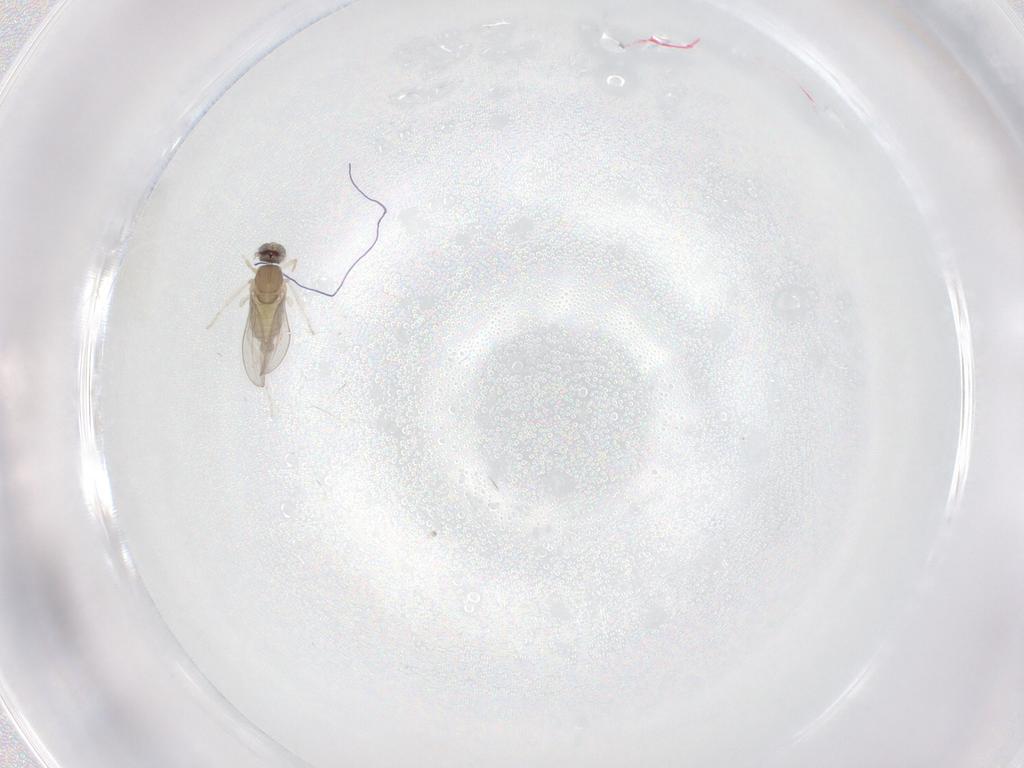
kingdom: Animalia
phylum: Arthropoda
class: Insecta
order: Diptera
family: Cecidomyiidae
